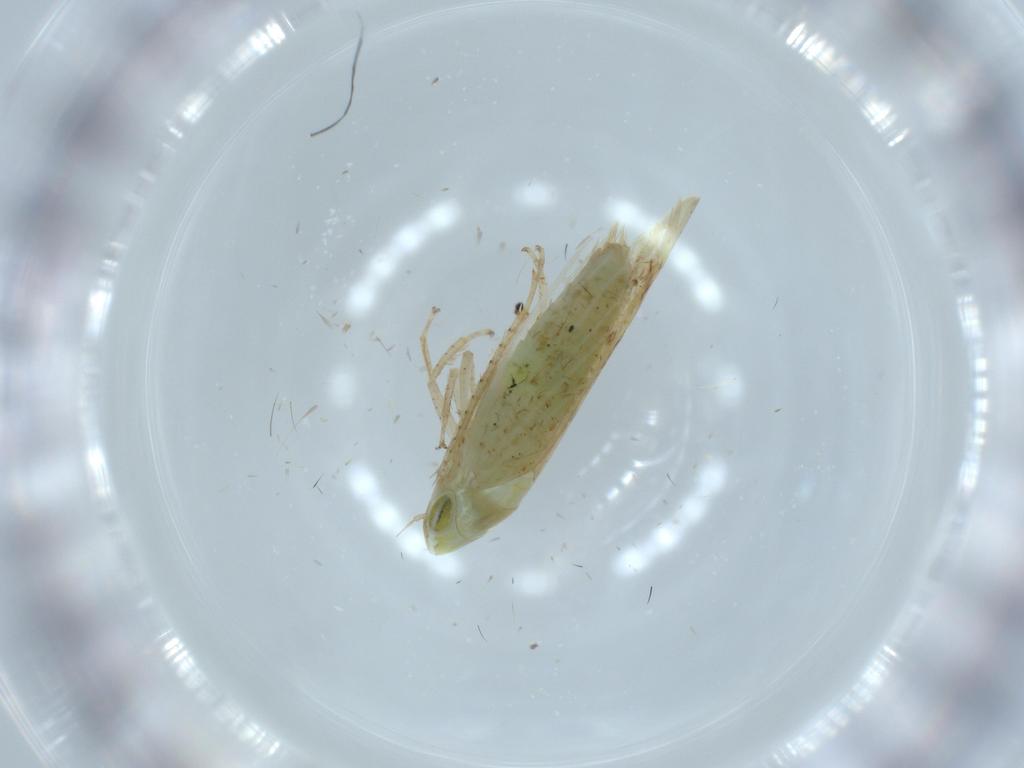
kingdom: Animalia
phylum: Arthropoda
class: Insecta
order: Hemiptera
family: Cicadellidae
